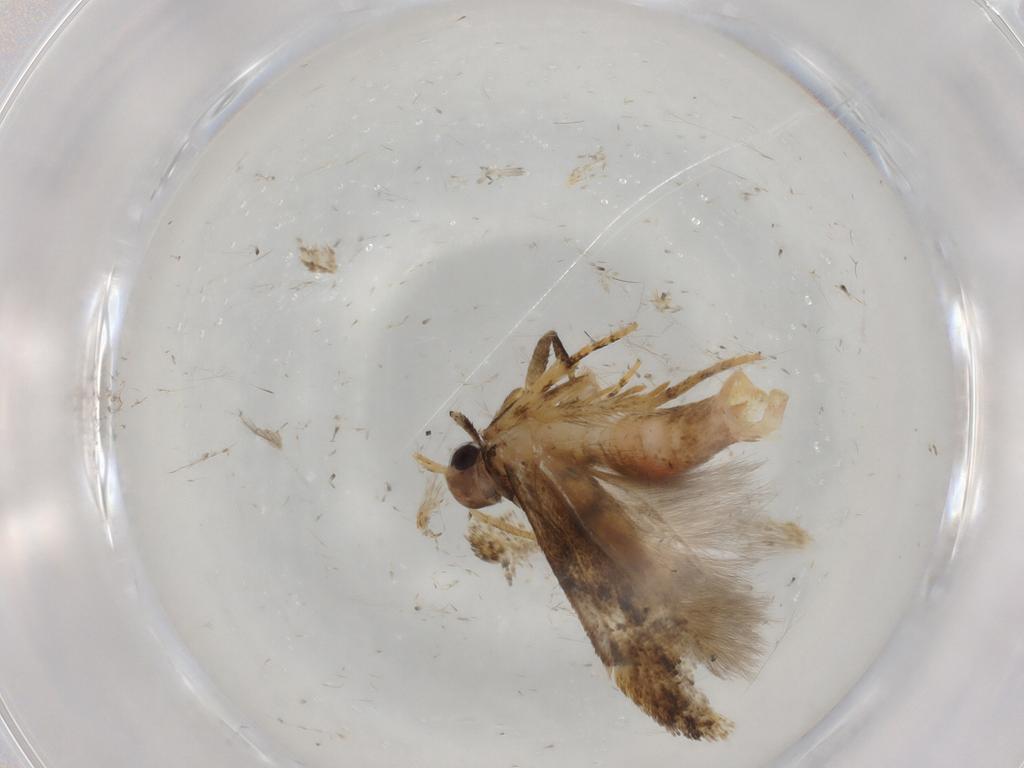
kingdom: Animalia
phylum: Arthropoda
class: Insecta
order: Lepidoptera
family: Gelechiidae
